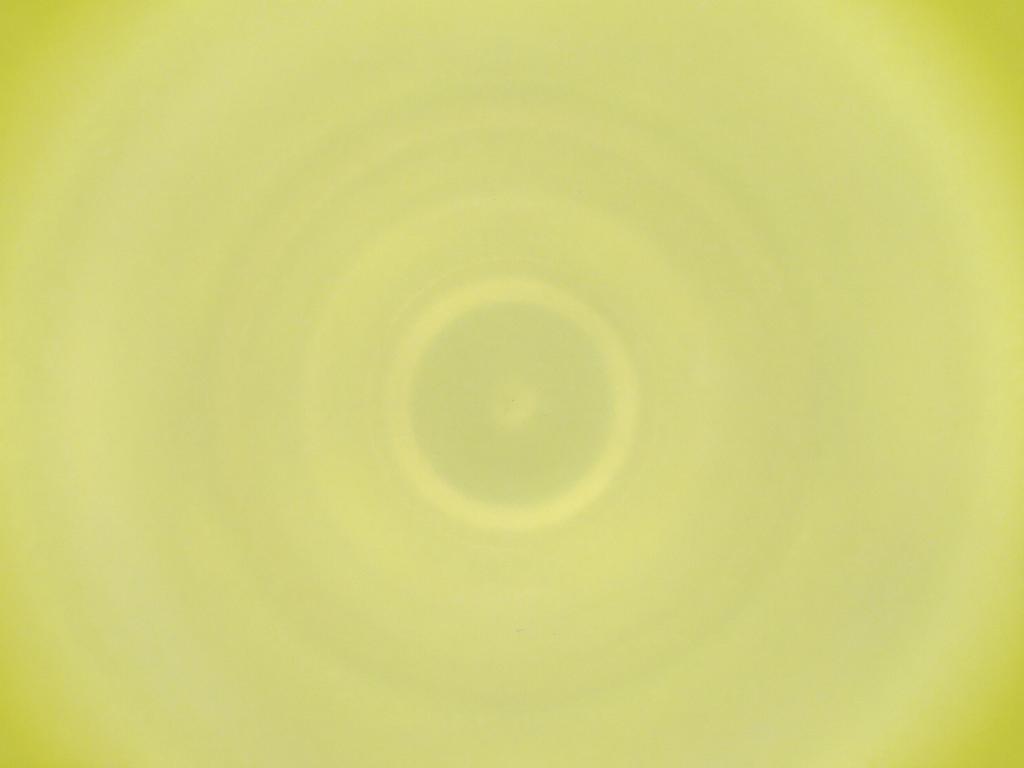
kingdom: Animalia
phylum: Arthropoda
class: Insecta
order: Diptera
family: Cecidomyiidae
